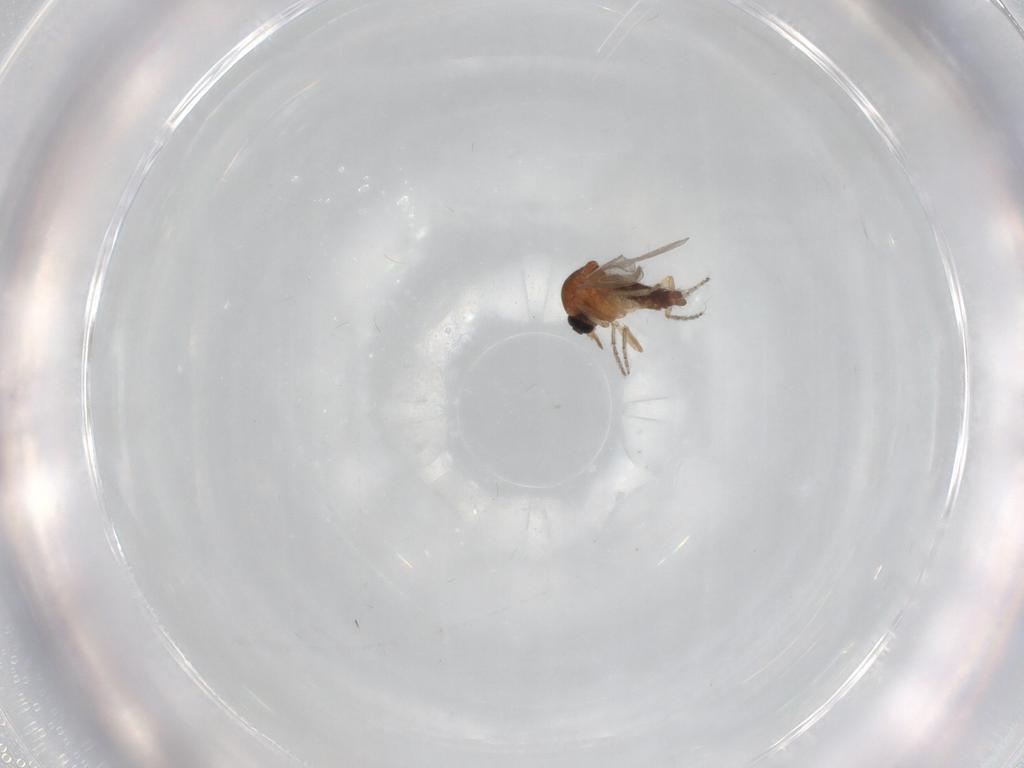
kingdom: Animalia
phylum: Arthropoda
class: Insecta
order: Diptera
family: Ceratopogonidae
